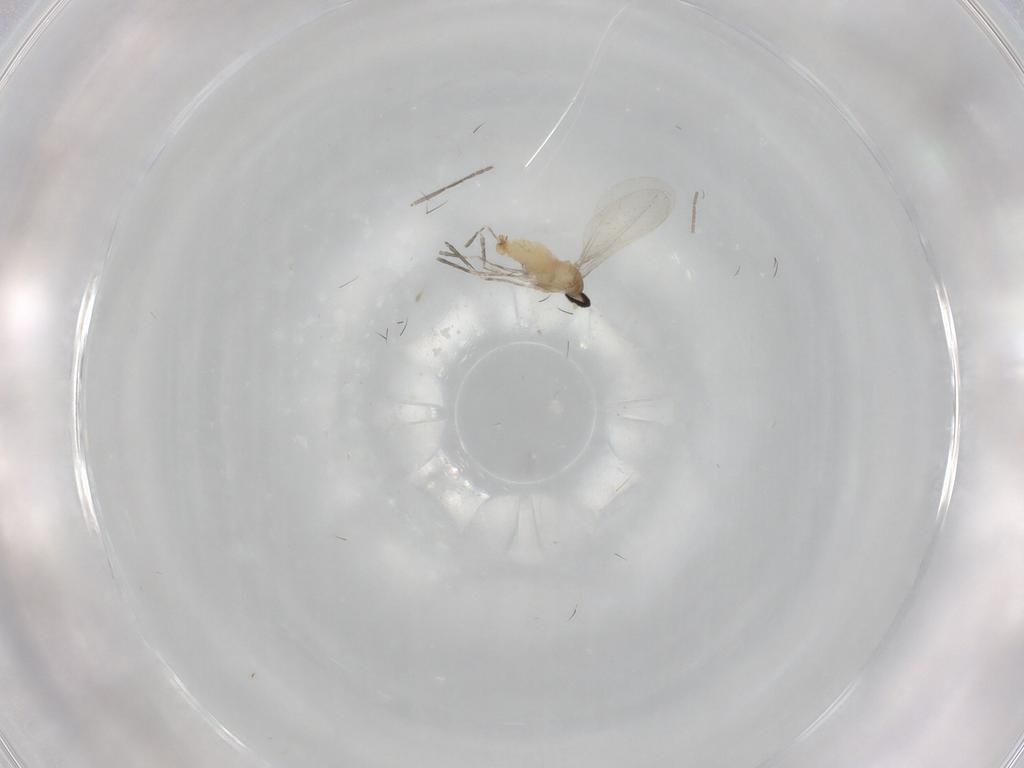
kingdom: Animalia
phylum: Arthropoda
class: Insecta
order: Diptera
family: Cecidomyiidae
